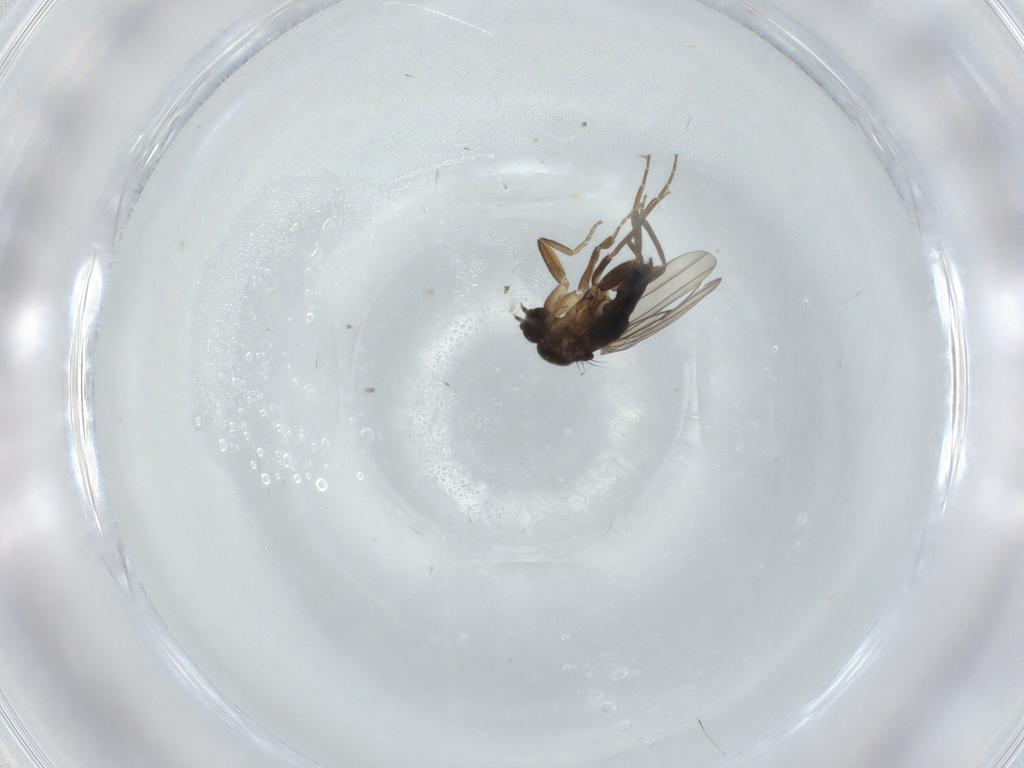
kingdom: Animalia
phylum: Arthropoda
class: Insecta
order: Diptera
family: Phoridae
